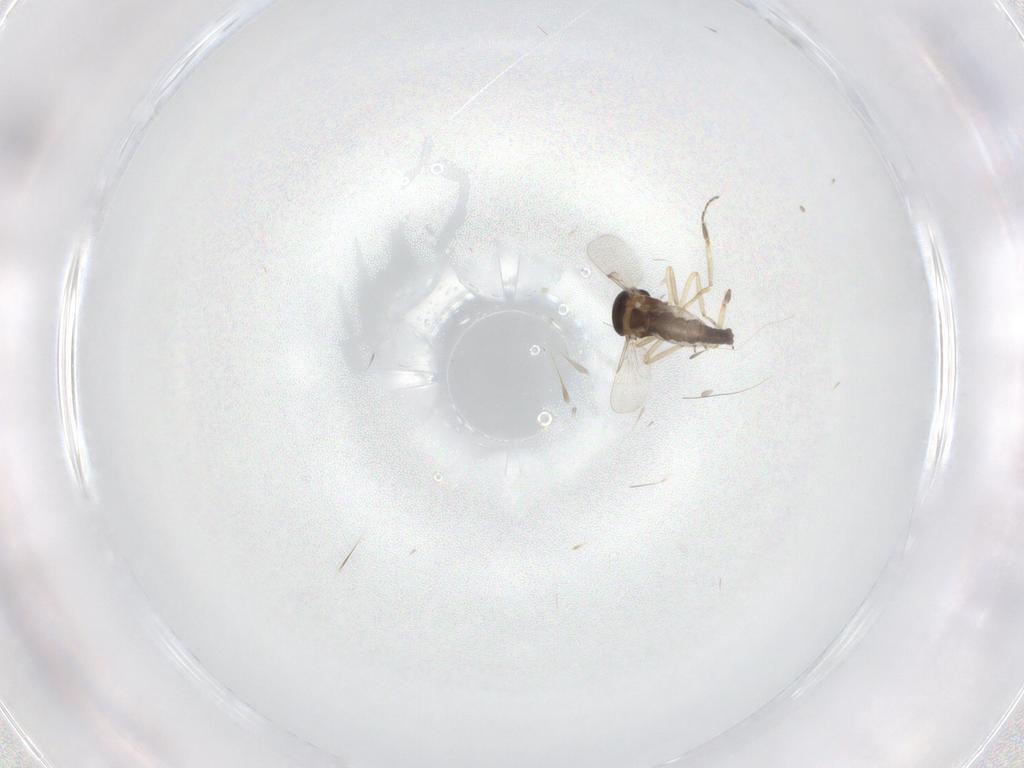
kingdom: Animalia
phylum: Arthropoda
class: Insecta
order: Diptera
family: Ceratopogonidae
